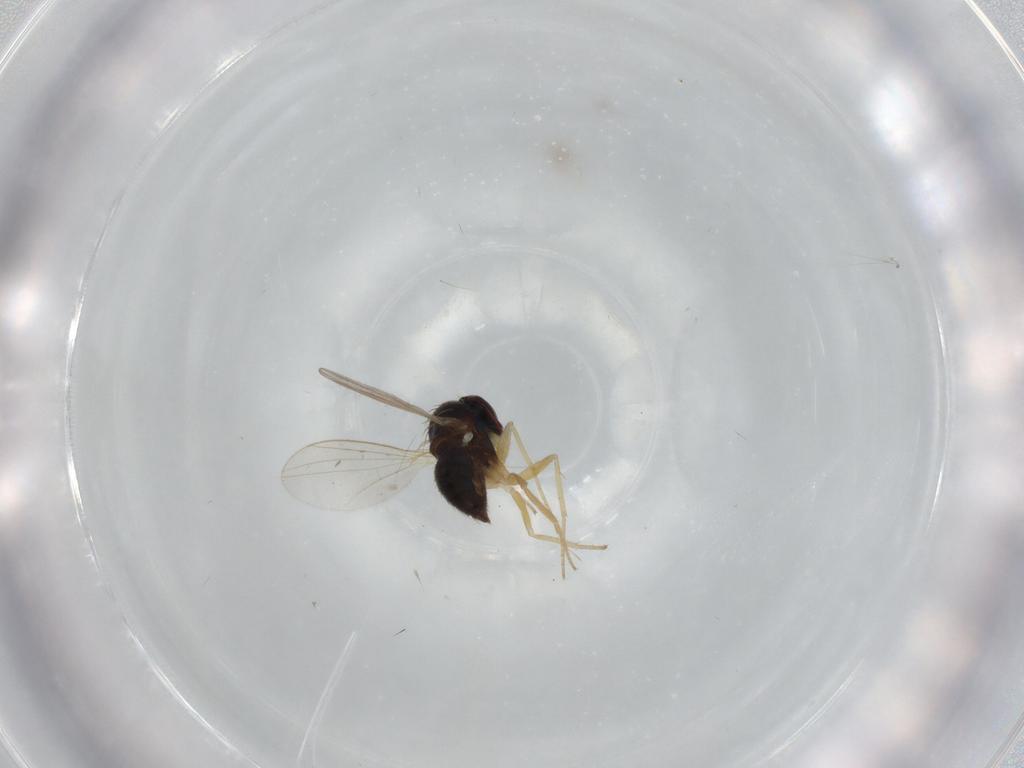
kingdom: Animalia
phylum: Arthropoda
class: Insecta
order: Diptera
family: Dolichopodidae
